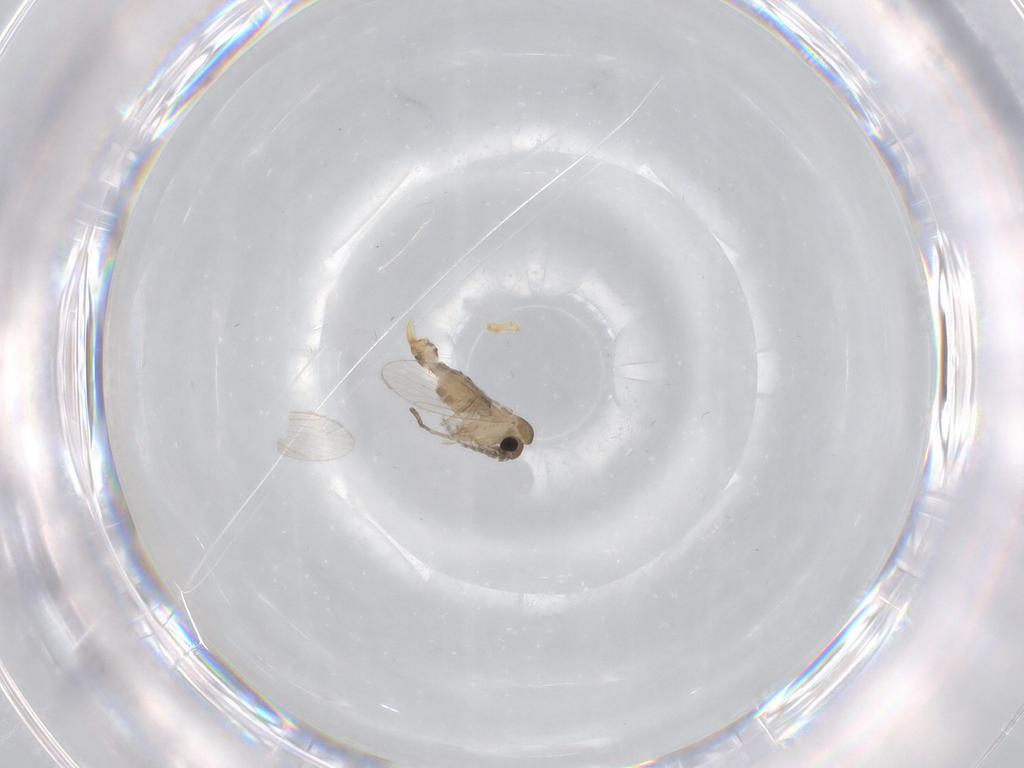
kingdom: Animalia
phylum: Arthropoda
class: Insecta
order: Diptera
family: Psychodidae
